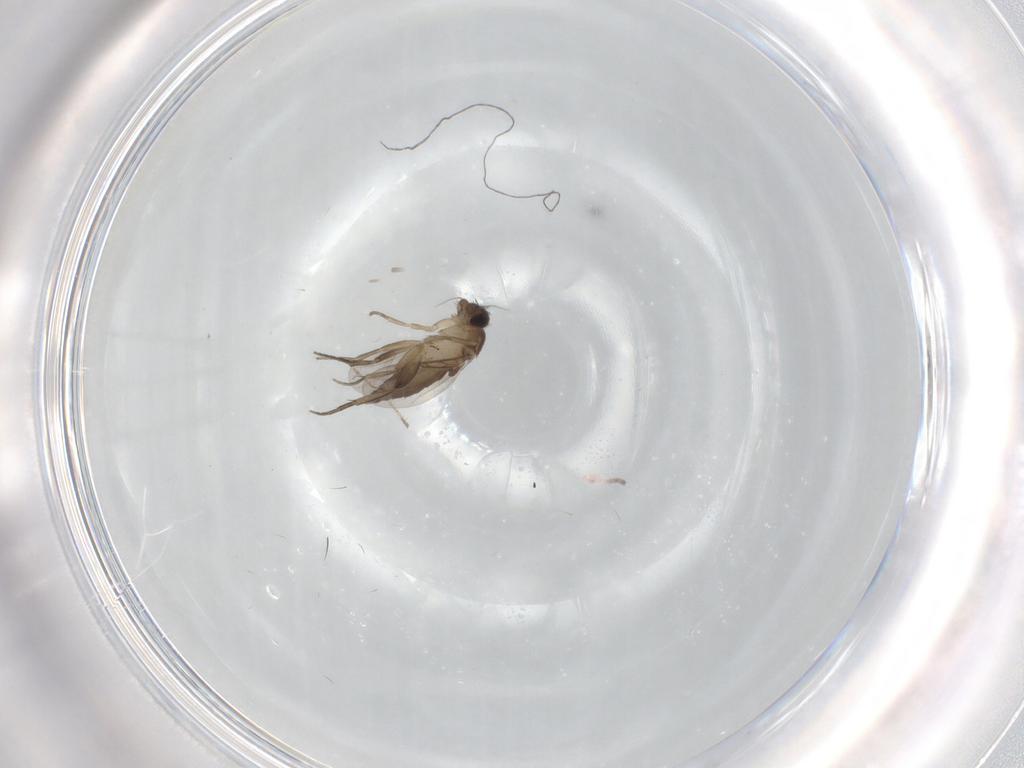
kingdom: Animalia
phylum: Arthropoda
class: Insecta
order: Diptera
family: Phoridae
